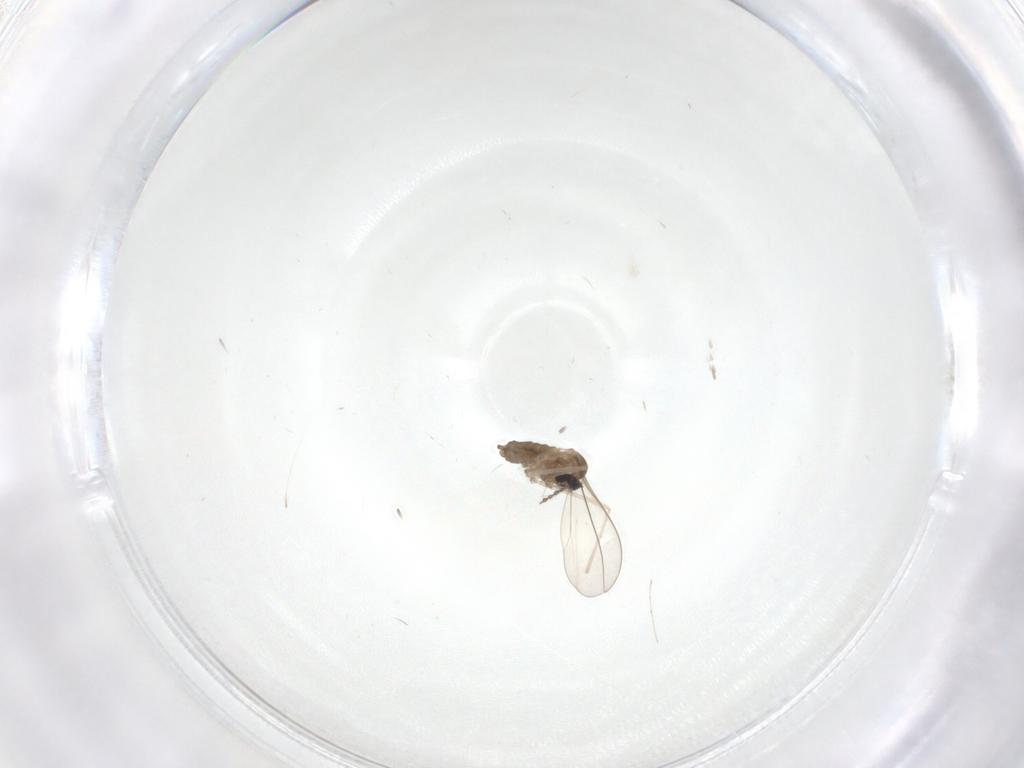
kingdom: Animalia
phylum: Arthropoda
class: Insecta
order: Diptera
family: Cecidomyiidae
